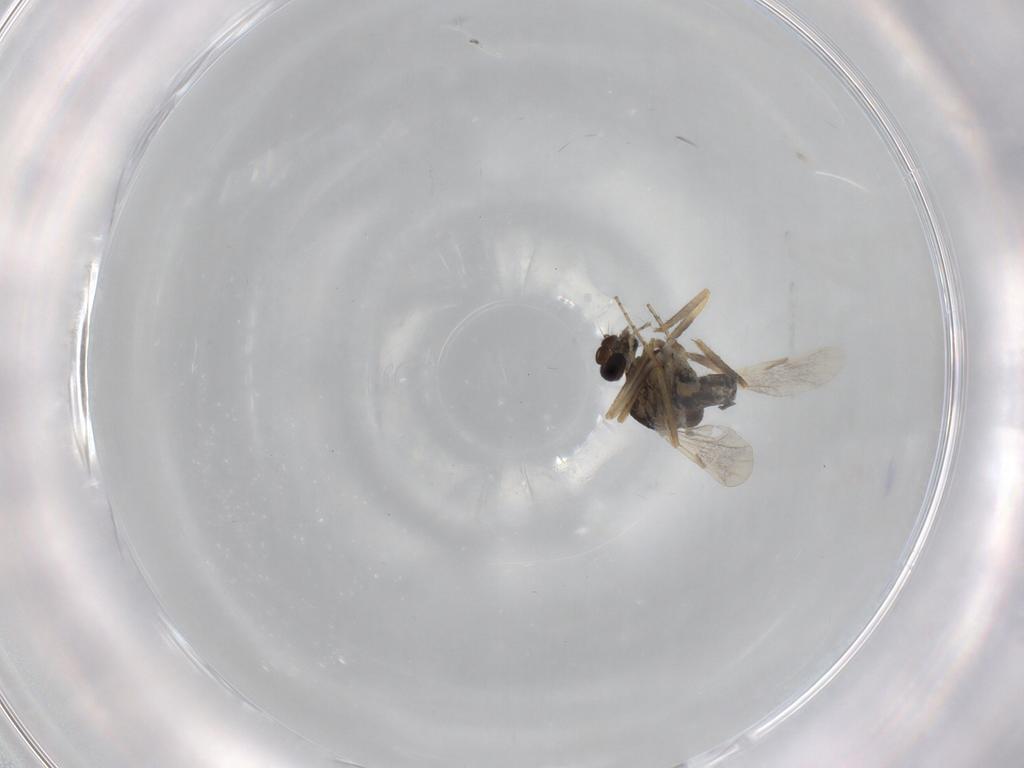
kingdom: Animalia
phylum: Arthropoda
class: Insecta
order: Diptera
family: Ceratopogonidae
